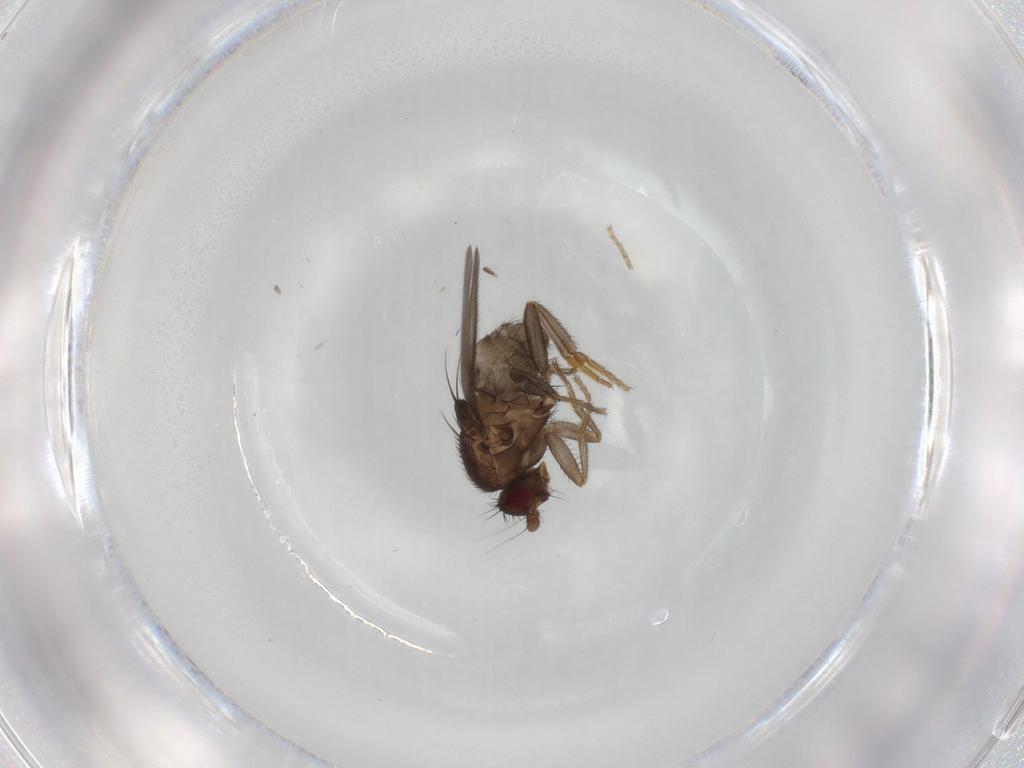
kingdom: Animalia
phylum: Arthropoda
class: Insecta
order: Diptera
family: Sphaeroceridae
